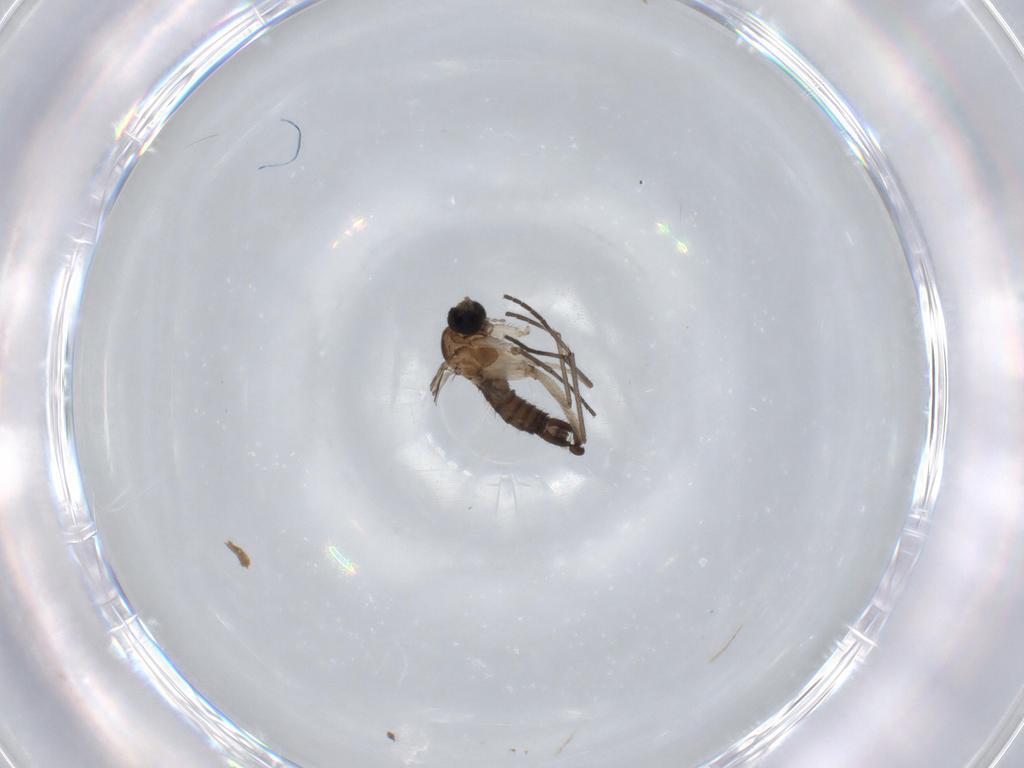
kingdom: Animalia
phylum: Arthropoda
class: Insecta
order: Diptera
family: Sciaridae
